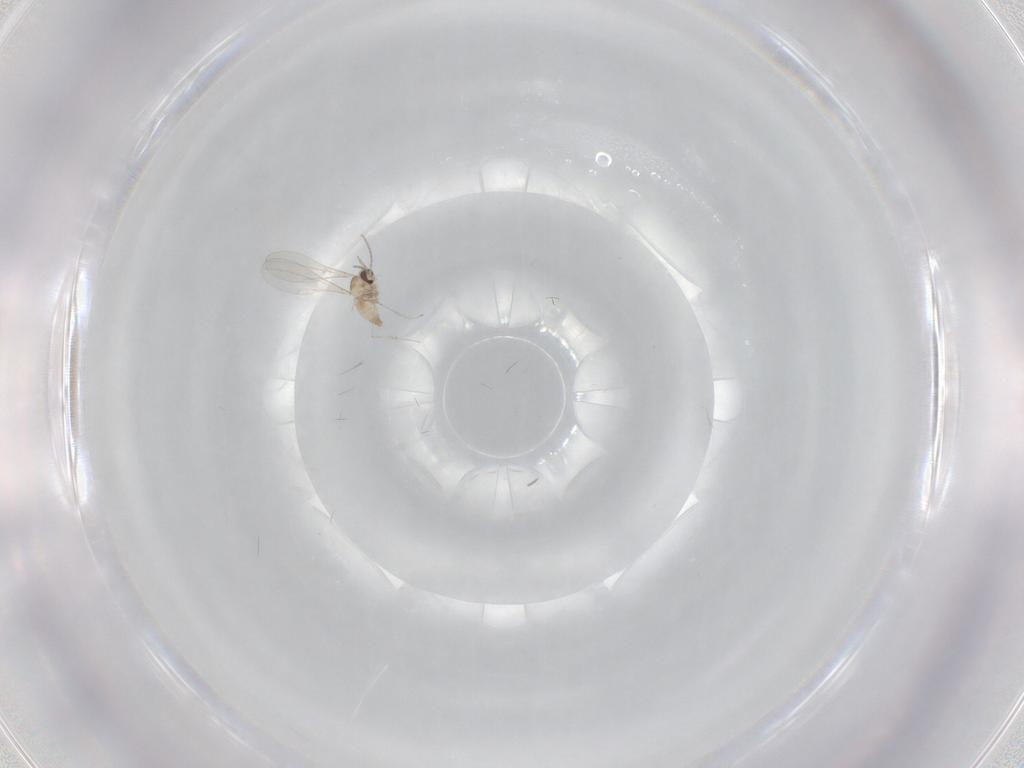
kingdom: Animalia
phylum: Arthropoda
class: Insecta
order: Diptera
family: Cecidomyiidae
